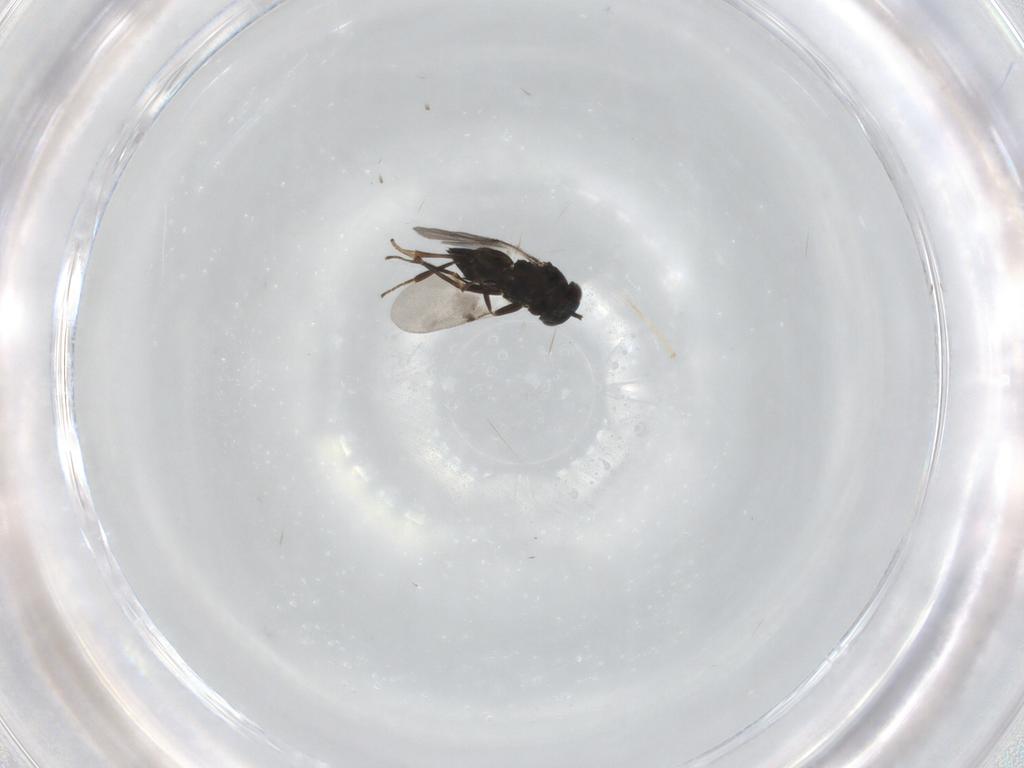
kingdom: Animalia
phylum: Arthropoda
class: Insecta
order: Hymenoptera
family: Encyrtidae
